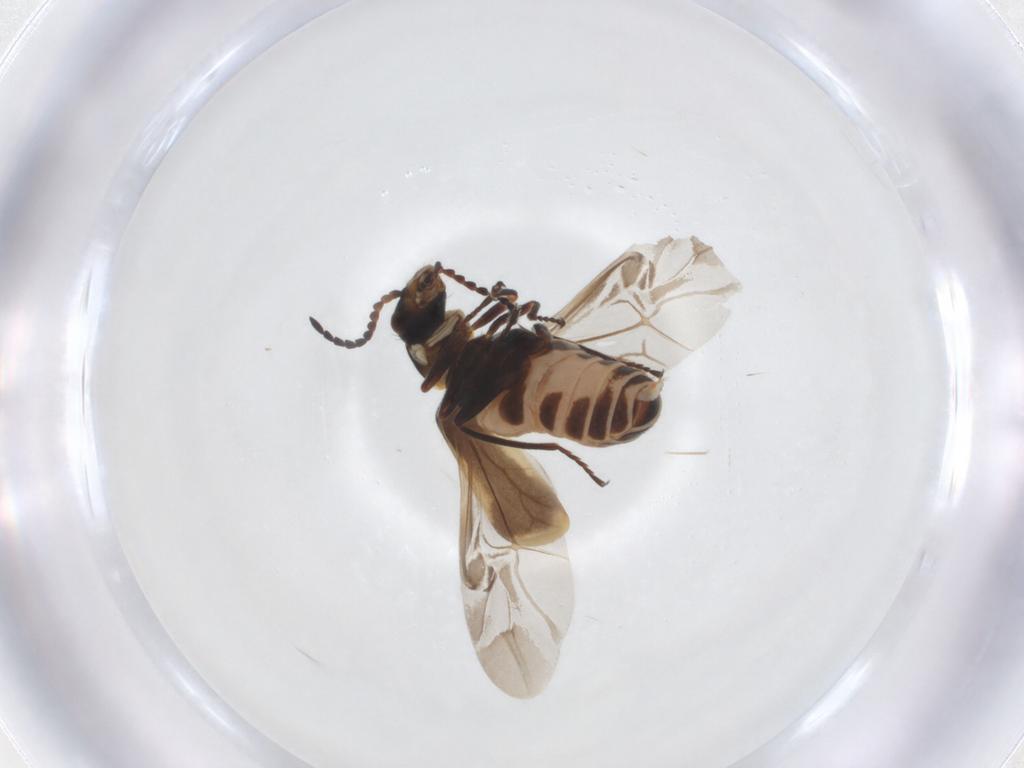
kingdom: Animalia
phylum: Arthropoda
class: Insecta
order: Coleoptera
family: Melyridae
